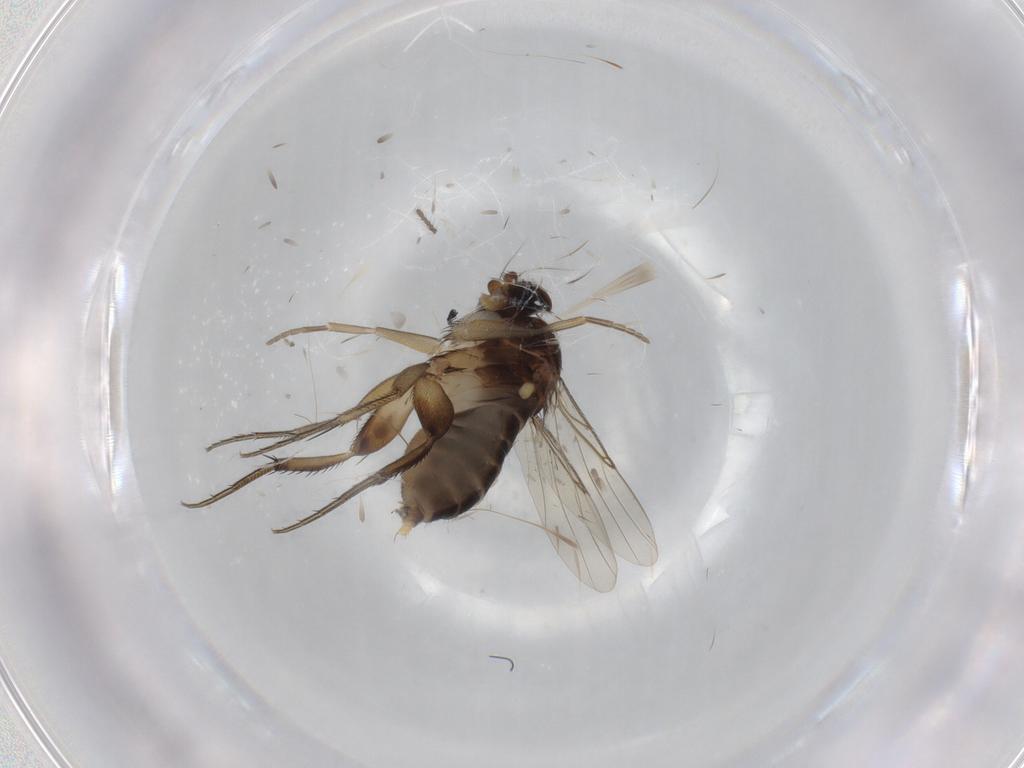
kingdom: Animalia
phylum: Arthropoda
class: Insecta
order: Diptera
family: Phoridae
